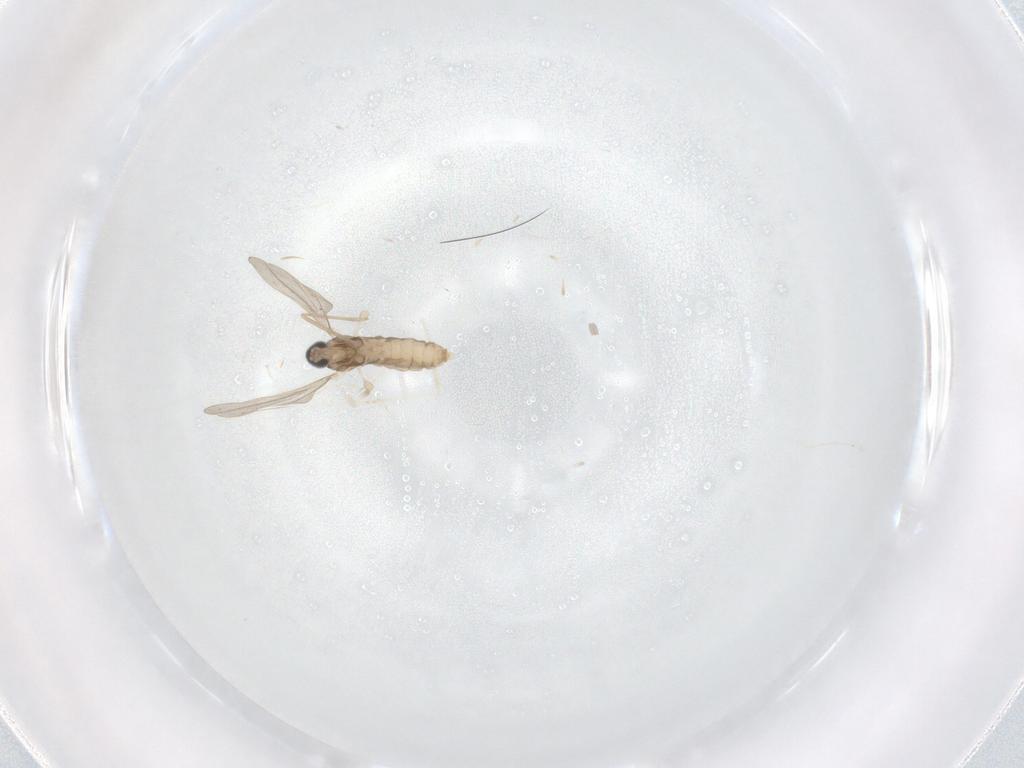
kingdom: Animalia
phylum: Arthropoda
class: Insecta
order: Diptera
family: Cecidomyiidae
